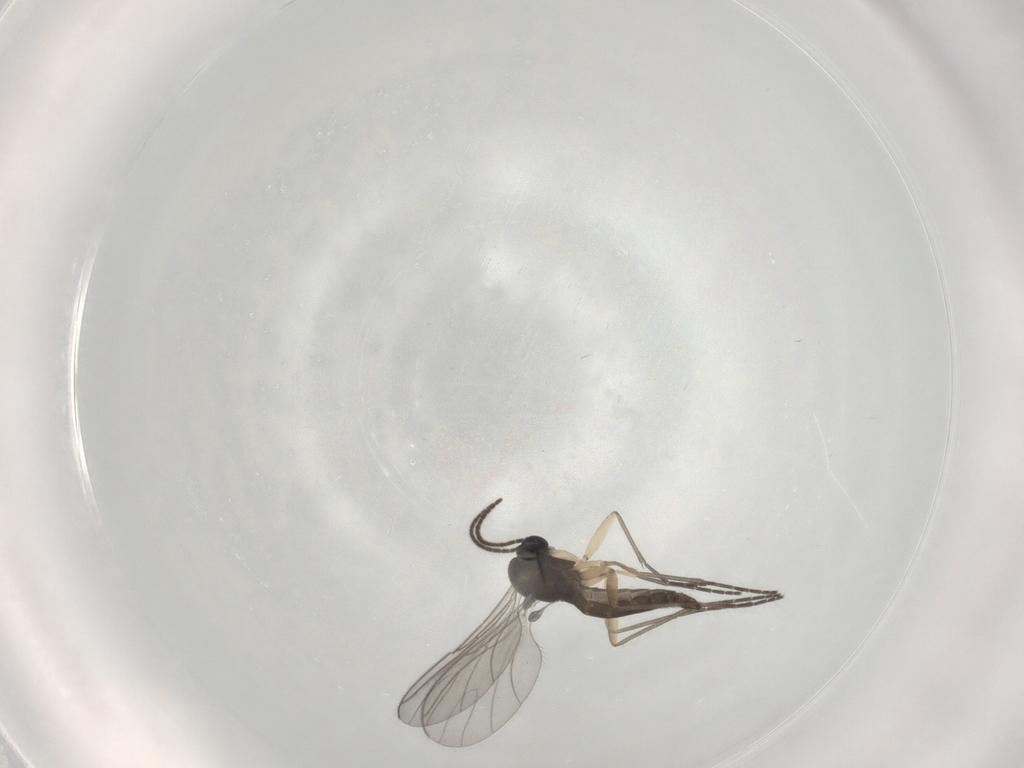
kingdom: Animalia
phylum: Arthropoda
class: Insecta
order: Diptera
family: Sciaridae
